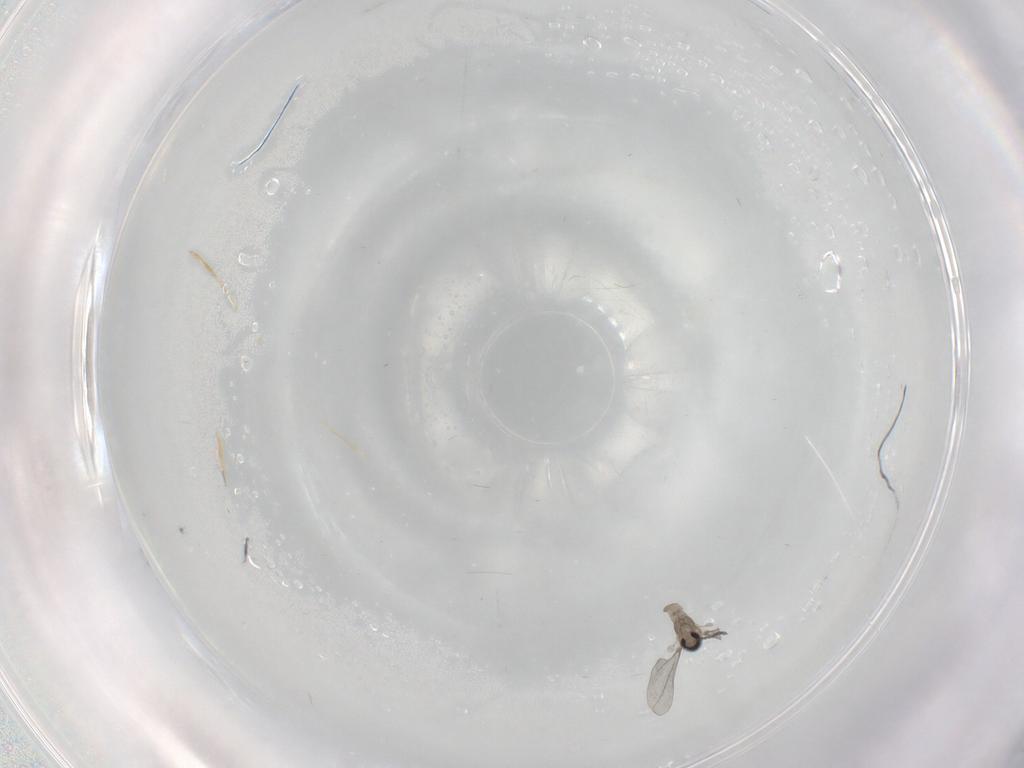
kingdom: Animalia
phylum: Arthropoda
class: Insecta
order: Diptera
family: Cecidomyiidae
